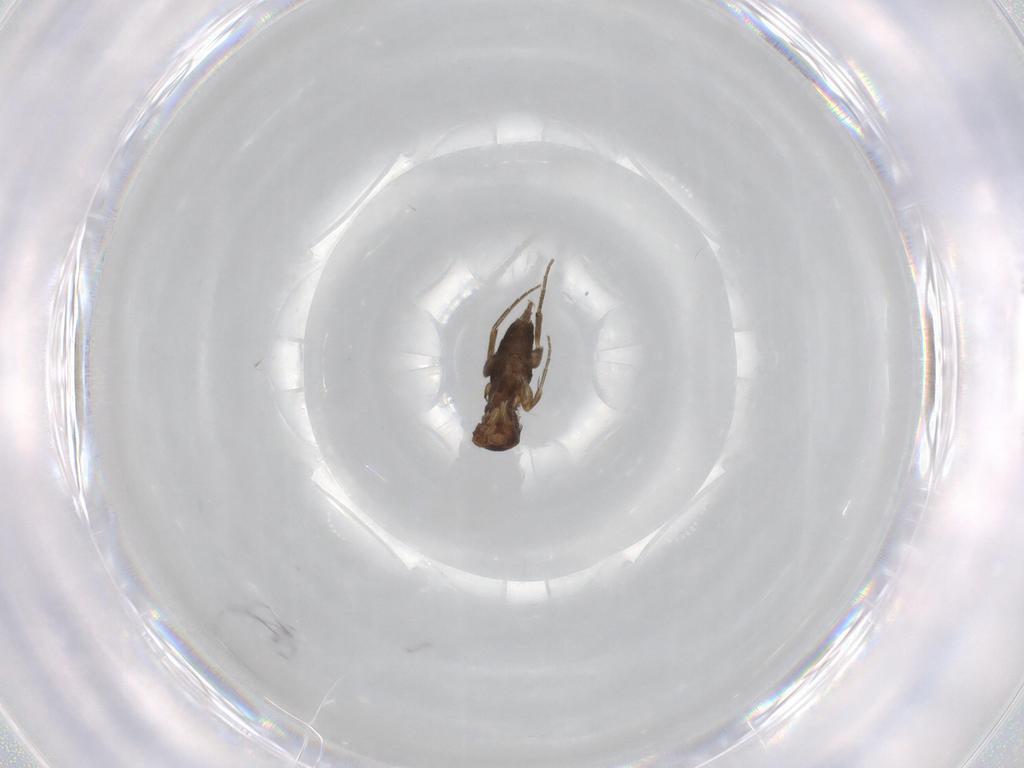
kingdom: Animalia
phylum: Arthropoda
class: Insecta
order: Diptera
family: Phoridae
